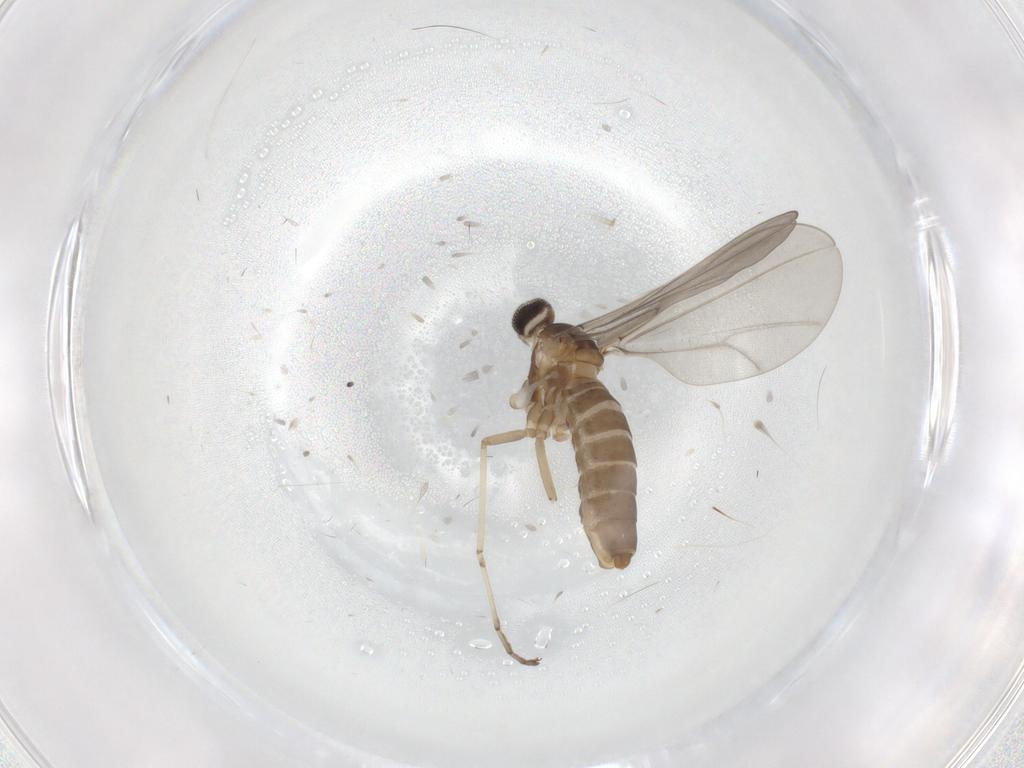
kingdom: Animalia
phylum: Arthropoda
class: Insecta
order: Diptera
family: Cecidomyiidae
